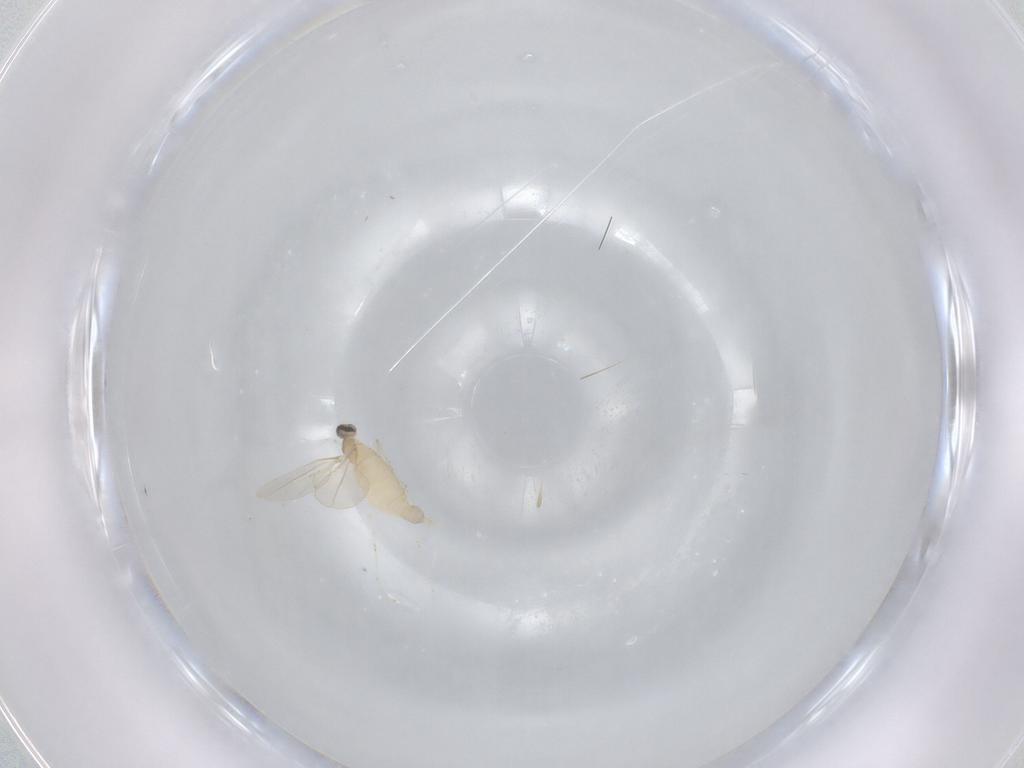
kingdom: Animalia
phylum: Arthropoda
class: Insecta
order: Diptera
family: Cecidomyiidae
